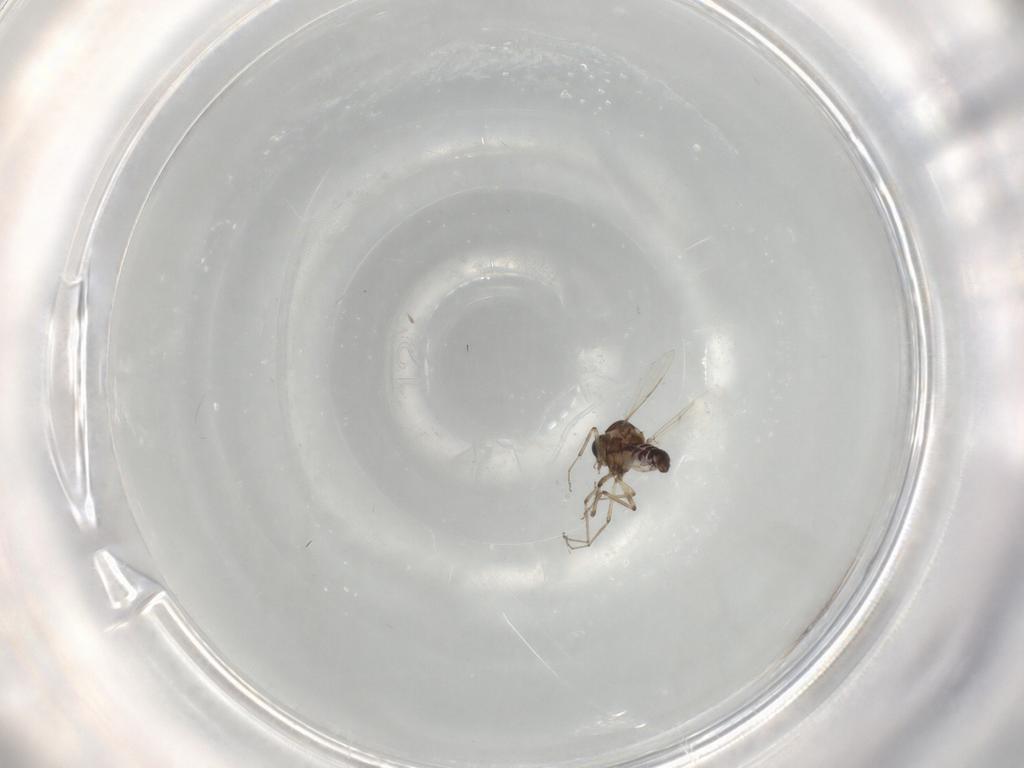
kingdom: Animalia
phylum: Arthropoda
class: Insecta
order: Diptera
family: Ceratopogonidae
